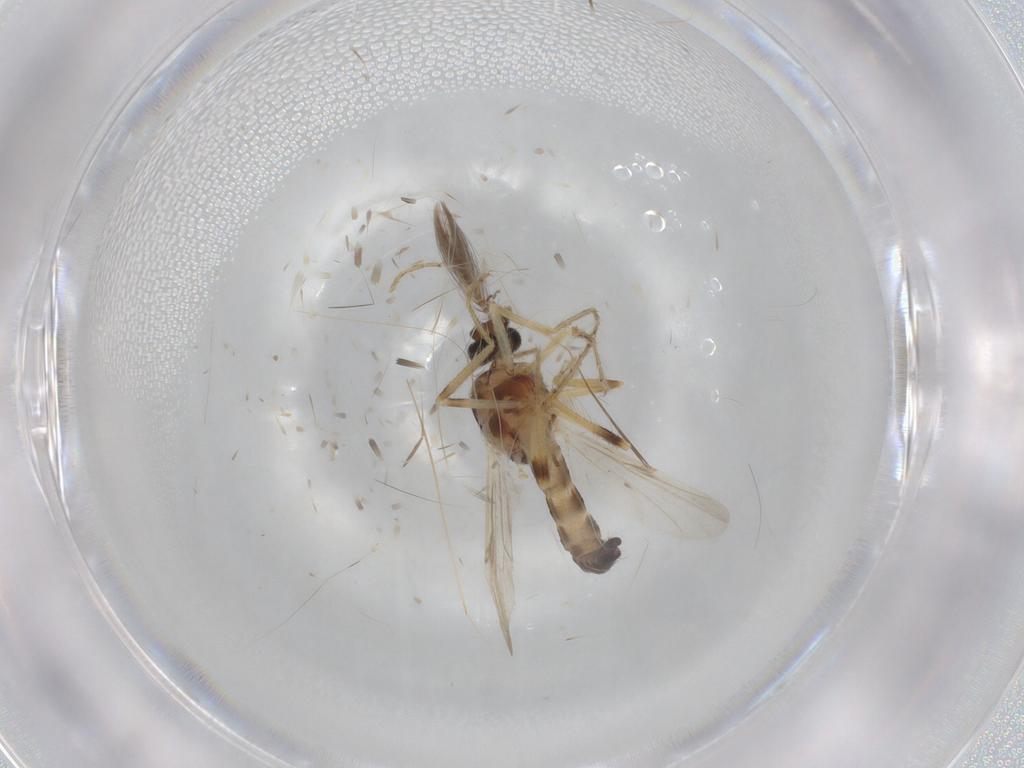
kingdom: Animalia
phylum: Arthropoda
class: Insecta
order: Diptera
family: Ceratopogonidae
